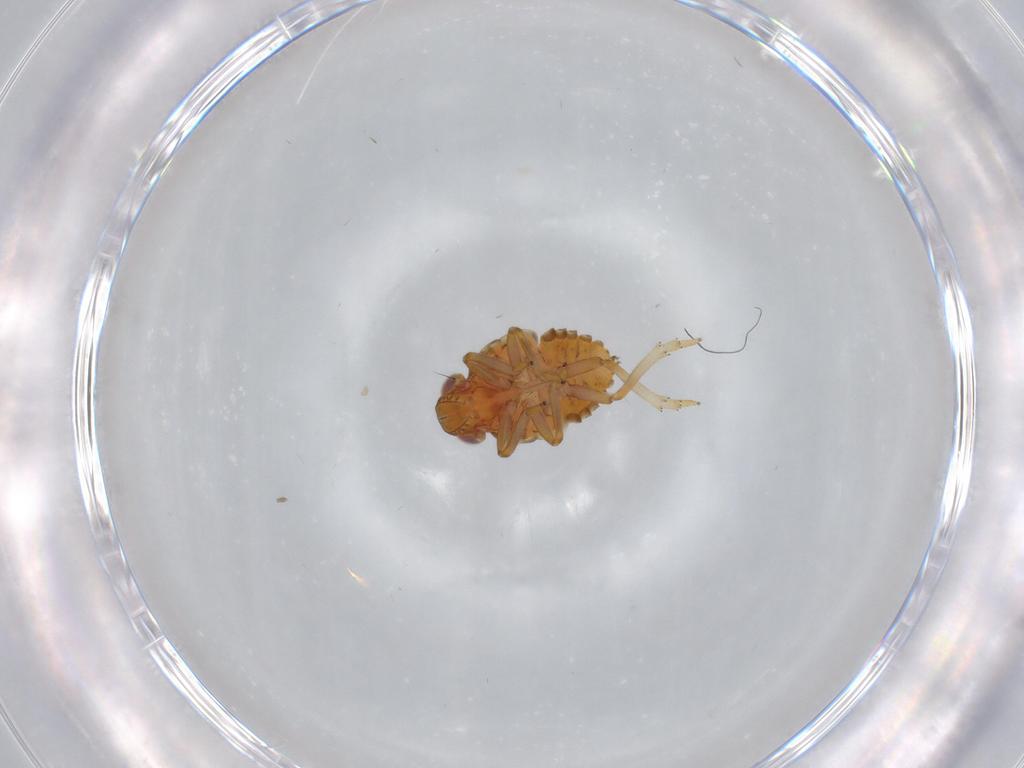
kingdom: Animalia
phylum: Arthropoda
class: Insecta
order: Hemiptera
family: Issidae
